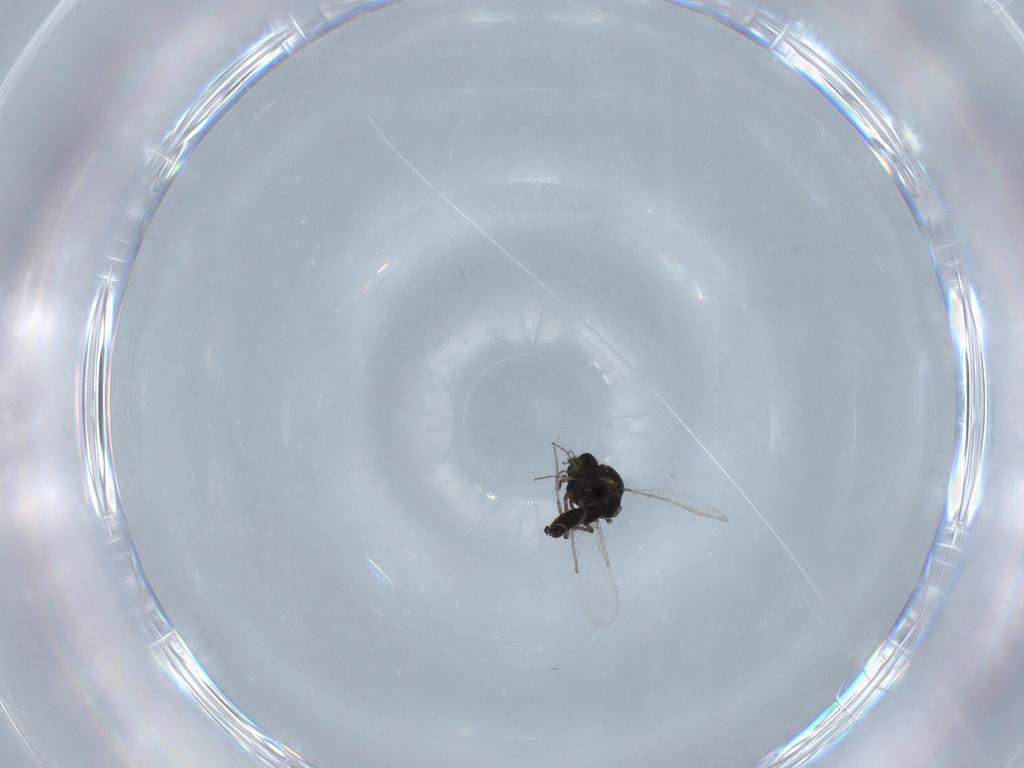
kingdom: Animalia
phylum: Arthropoda
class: Insecta
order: Diptera
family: Ceratopogonidae
